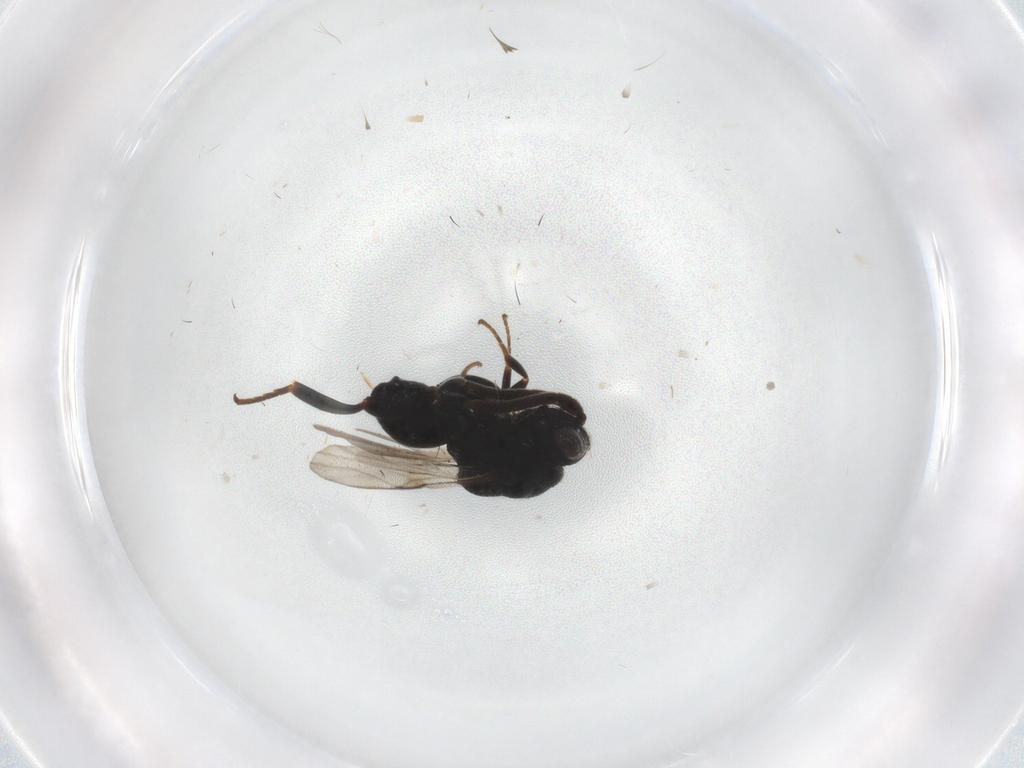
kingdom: Animalia
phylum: Arthropoda
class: Insecta
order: Hymenoptera
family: Formicidae
